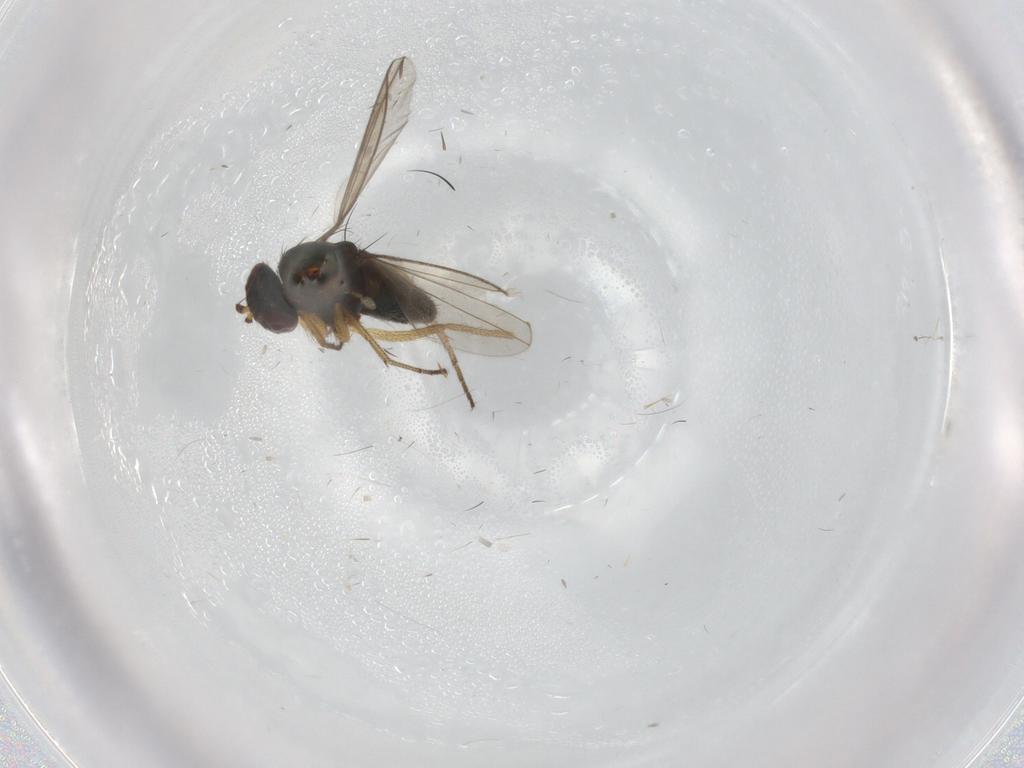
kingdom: Animalia
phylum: Arthropoda
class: Insecta
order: Diptera
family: Dolichopodidae
